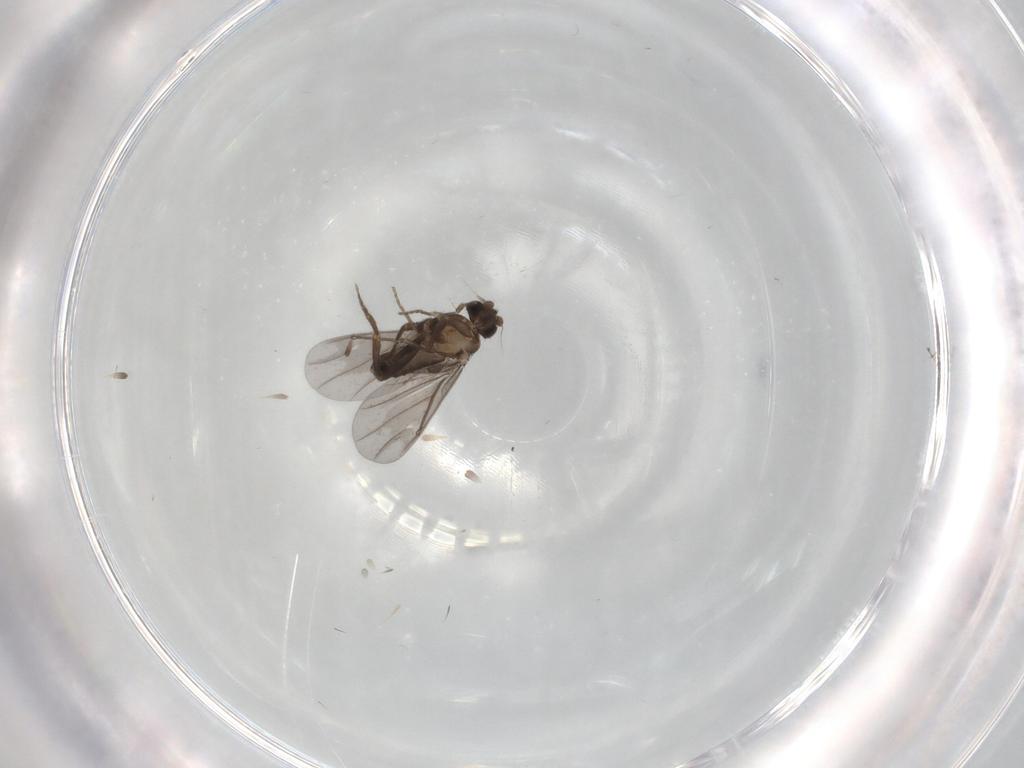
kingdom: Animalia
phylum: Arthropoda
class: Insecta
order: Diptera
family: Phoridae
